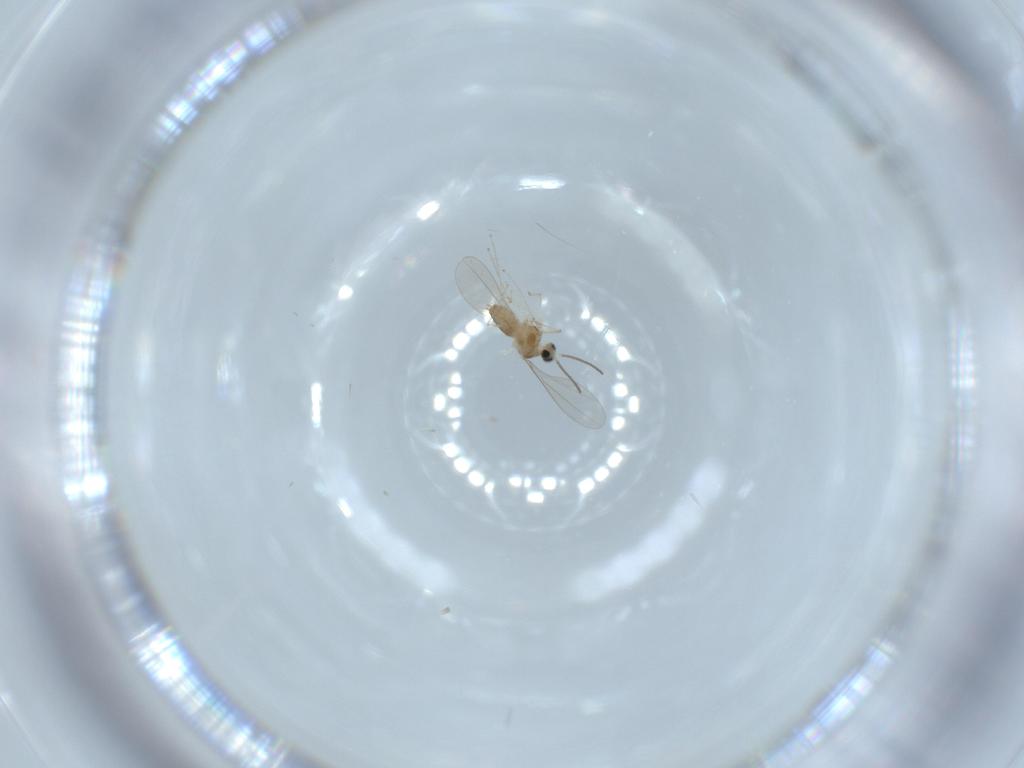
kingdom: Animalia
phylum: Arthropoda
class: Insecta
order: Diptera
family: Cecidomyiidae
